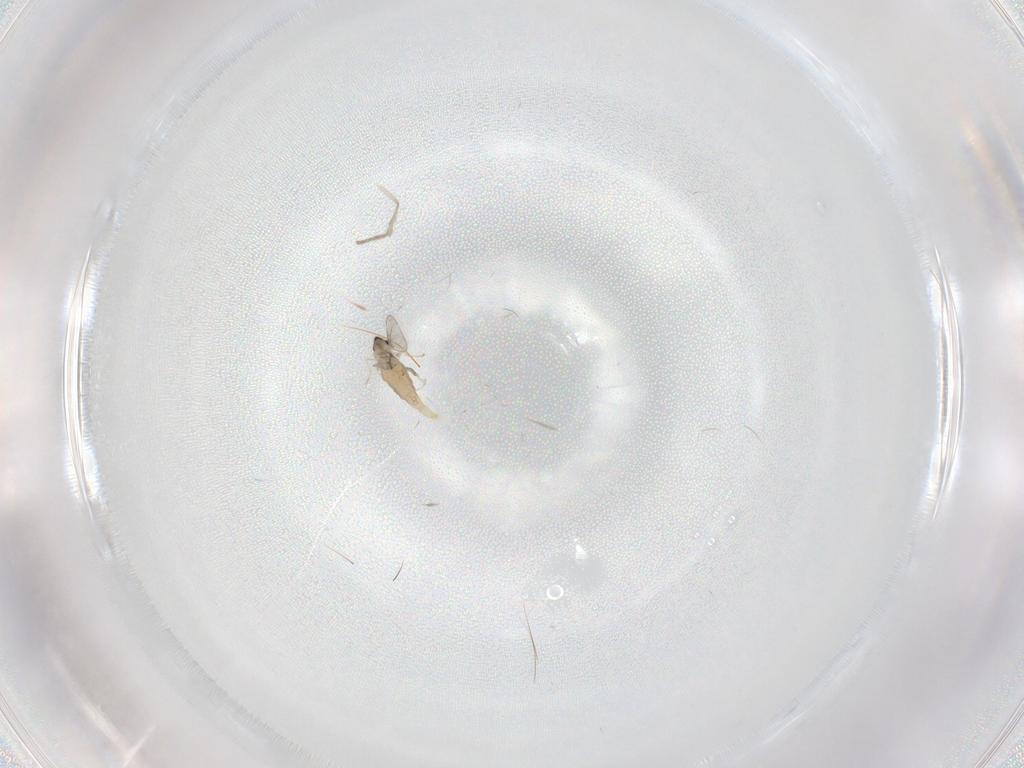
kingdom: Animalia
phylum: Arthropoda
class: Insecta
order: Diptera
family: Cecidomyiidae
